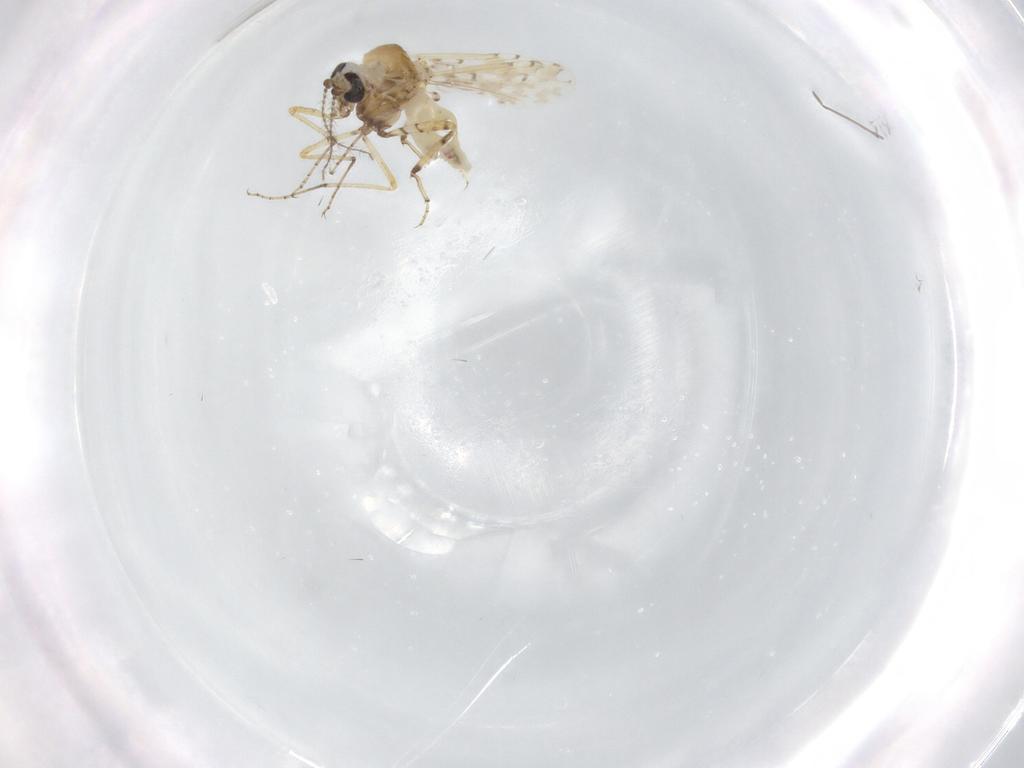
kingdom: Animalia
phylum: Arthropoda
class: Insecta
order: Diptera
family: Ceratopogonidae
